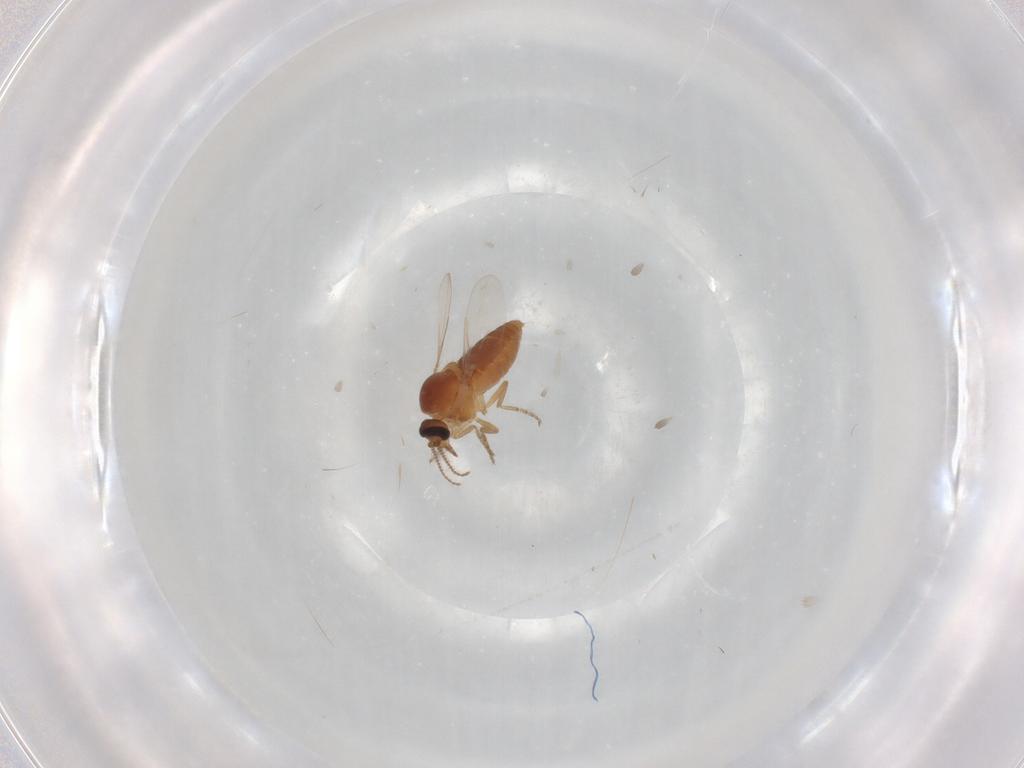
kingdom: Animalia
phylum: Arthropoda
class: Insecta
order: Diptera
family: Ceratopogonidae
